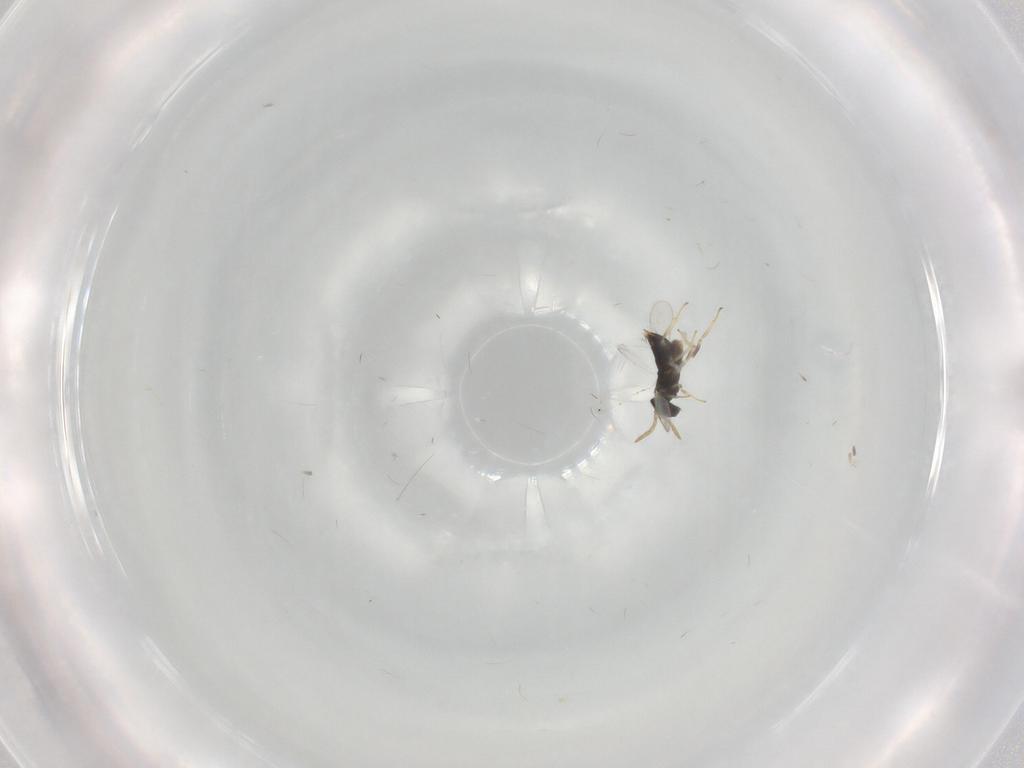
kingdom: Animalia
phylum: Arthropoda
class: Insecta
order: Hymenoptera
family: Aphelinidae
